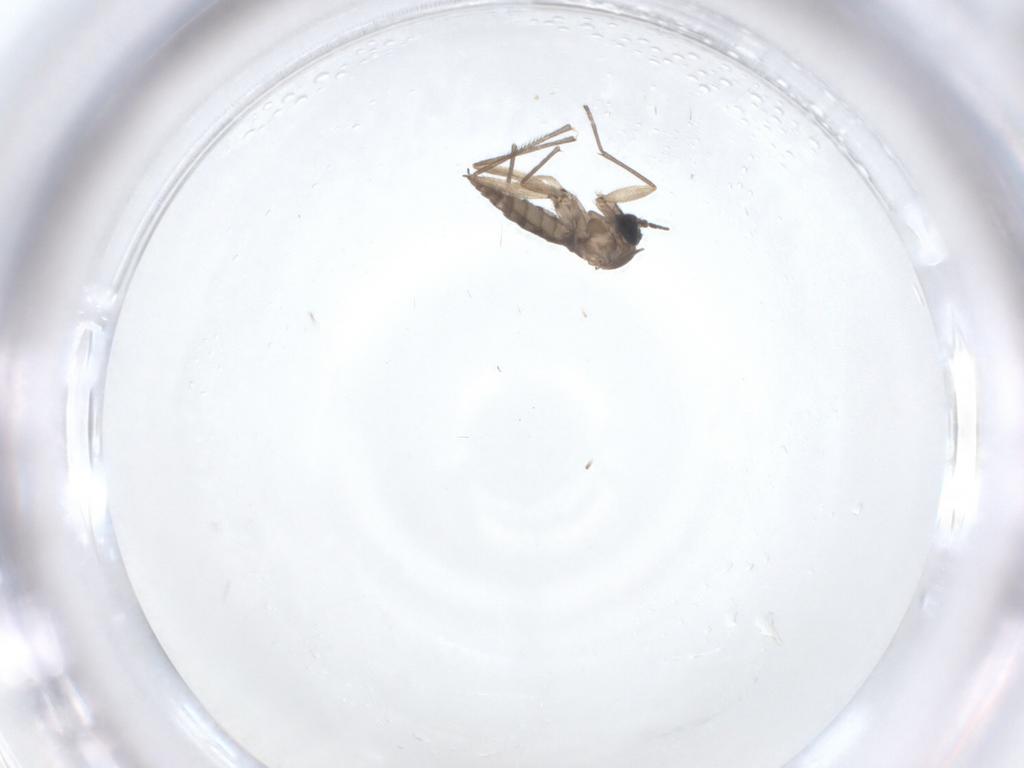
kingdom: Animalia
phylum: Arthropoda
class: Insecta
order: Diptera
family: Sciaridae
